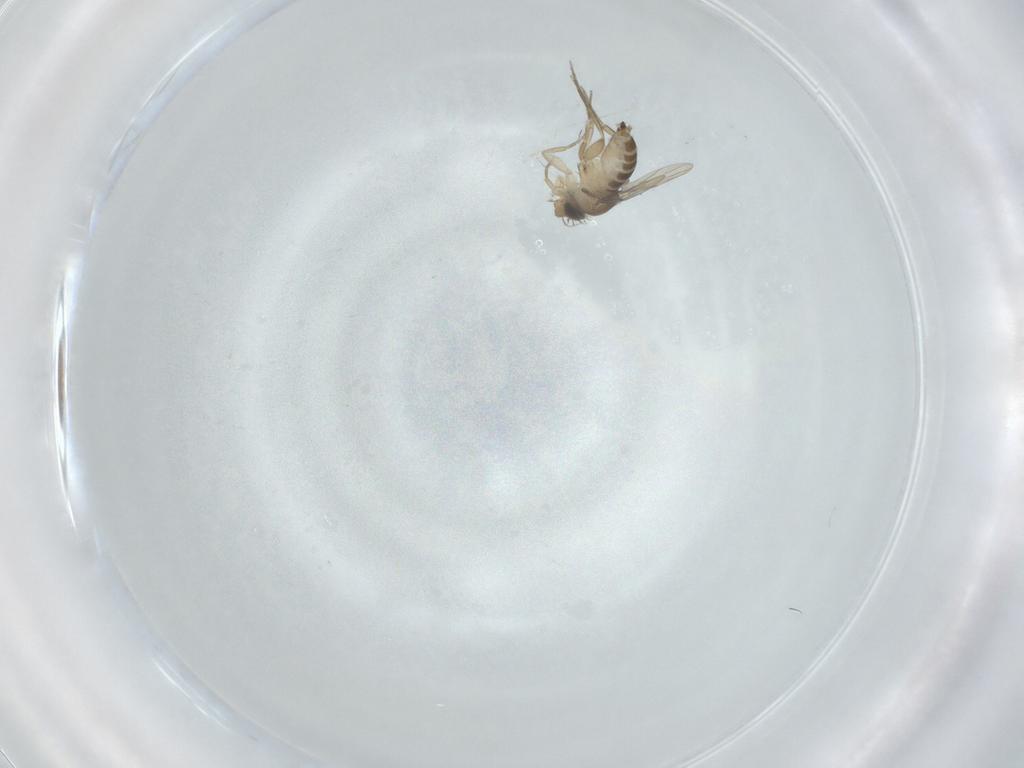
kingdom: Animalia
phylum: Arthropoda
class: Insecta
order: Diptera
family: Phoridae
